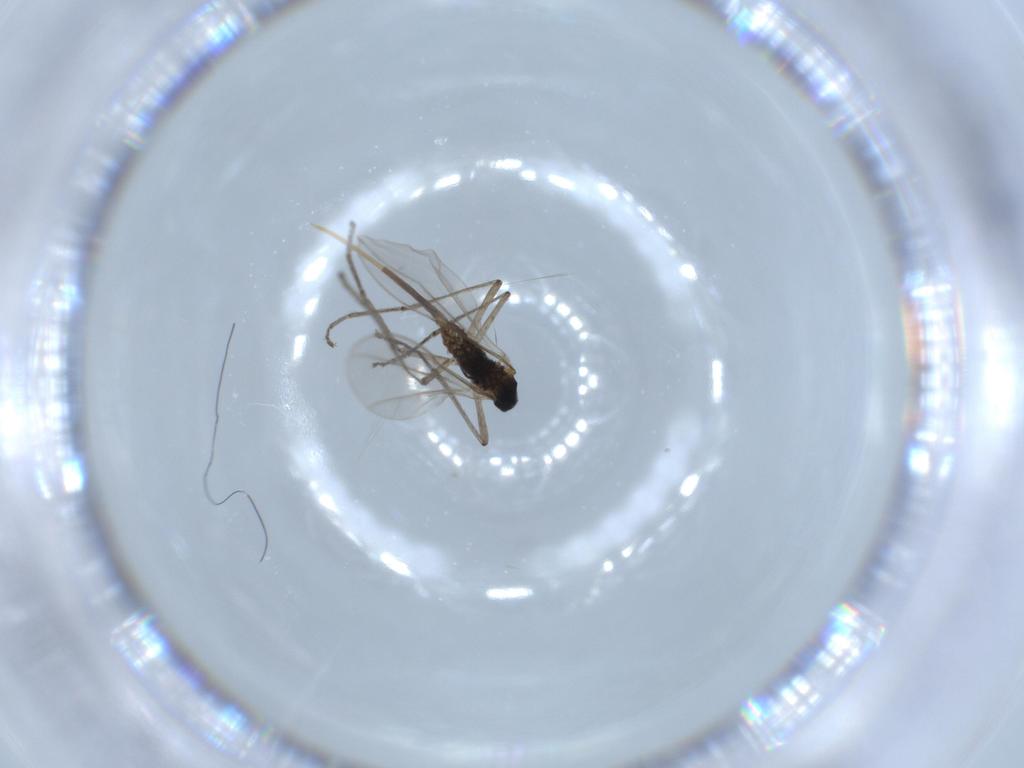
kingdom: Animalia
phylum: Arthropoda
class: Insecta
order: Diptera
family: Cecidomyiidae
